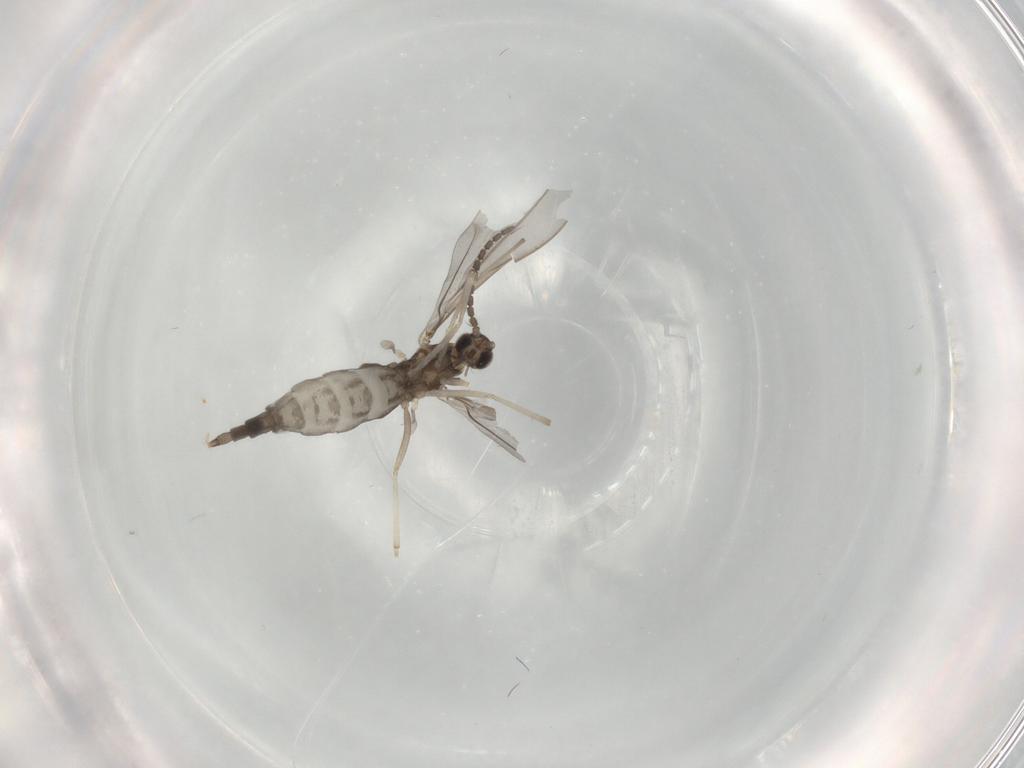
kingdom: Animalia
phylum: Arthropoda
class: Insecta
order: Diptera
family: Cecidomyiidae
